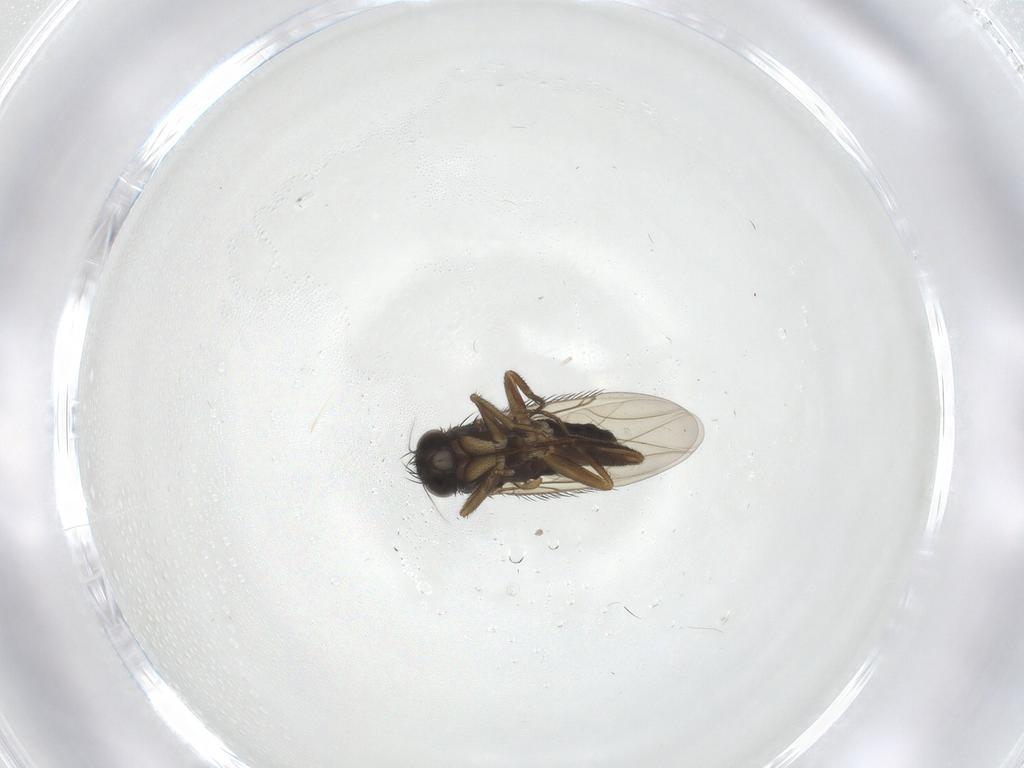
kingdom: Animalia
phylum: Arthropoda
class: Insecta
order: Diptera
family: Phoridae
